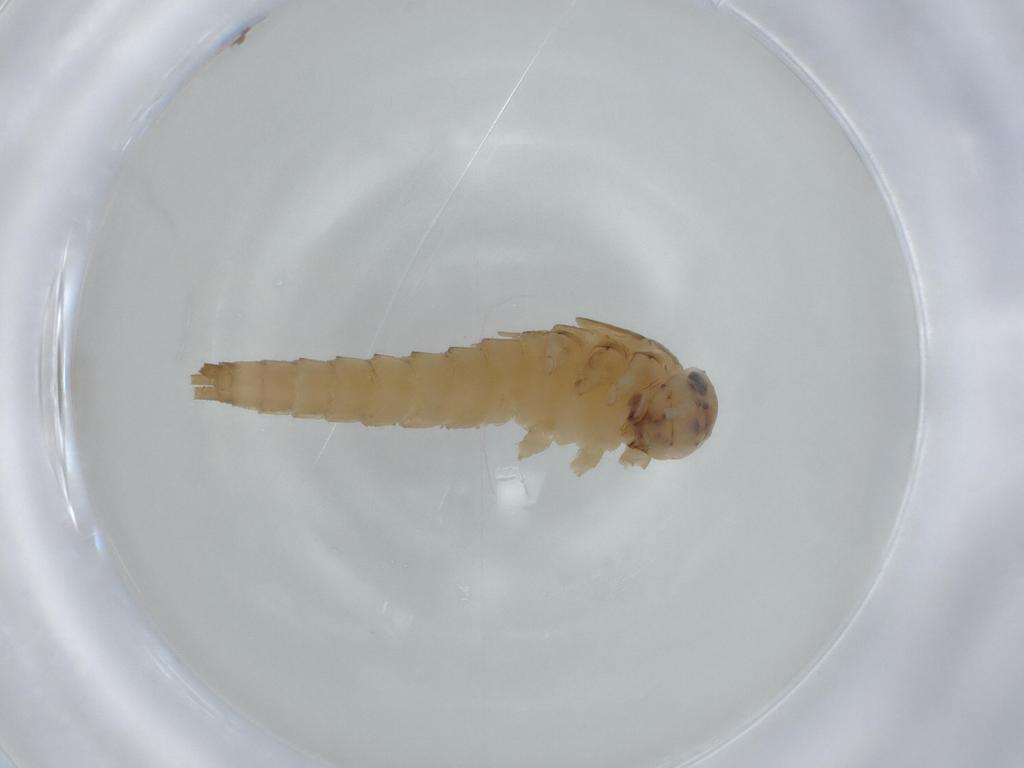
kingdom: Animalia
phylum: Arthropoda
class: Insecta
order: Ephemeroptera
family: Baetidae
